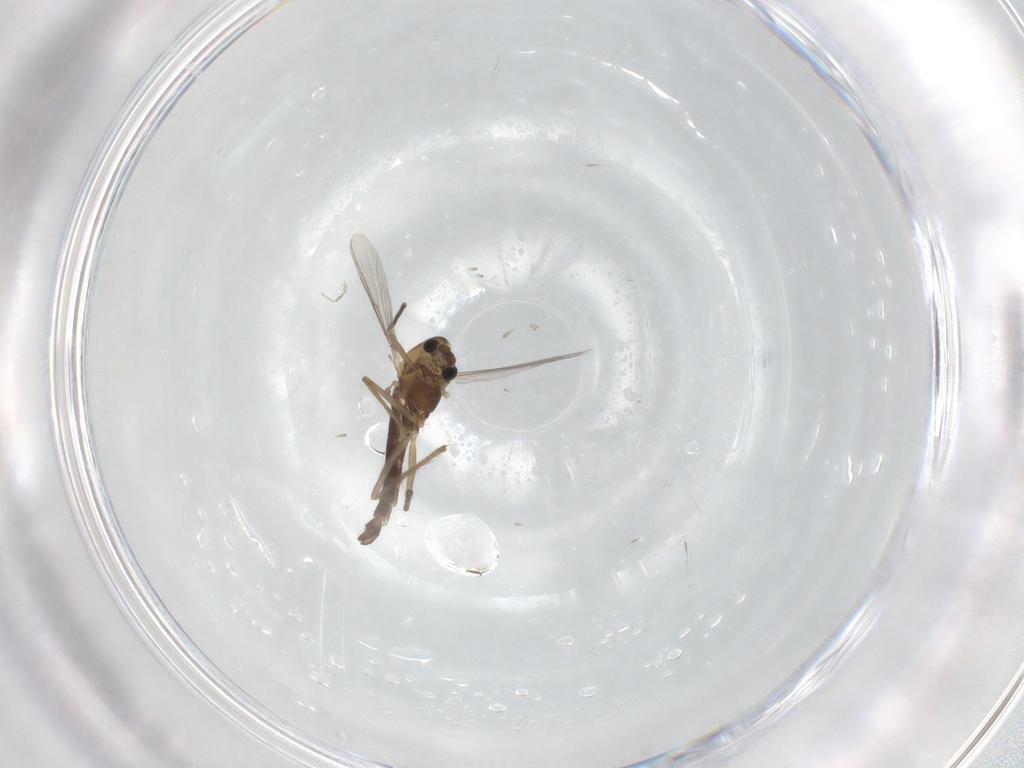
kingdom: Animalia
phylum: Arthropoda
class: Insecta
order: Diptera
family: Chironomidae
